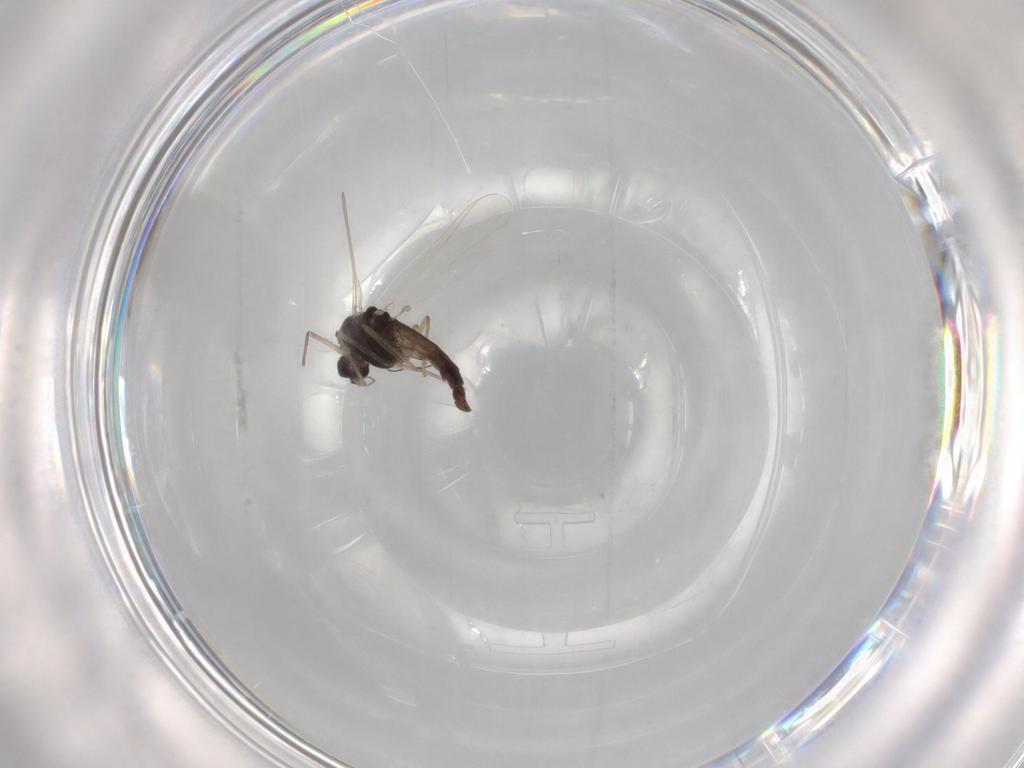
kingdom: Animalia
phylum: Arthropoda
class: Insecta
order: Diptera
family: Chironomidae
